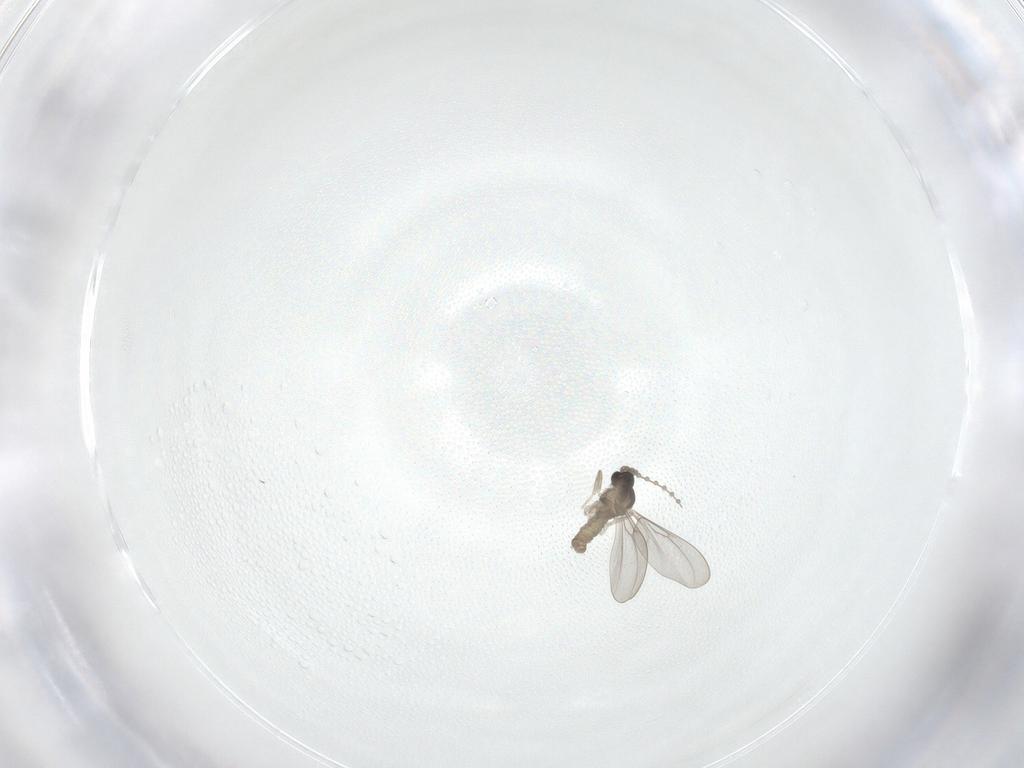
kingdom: Animalia
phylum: Arthropoda
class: Insecta
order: Diptera
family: Cecidomyiidae
